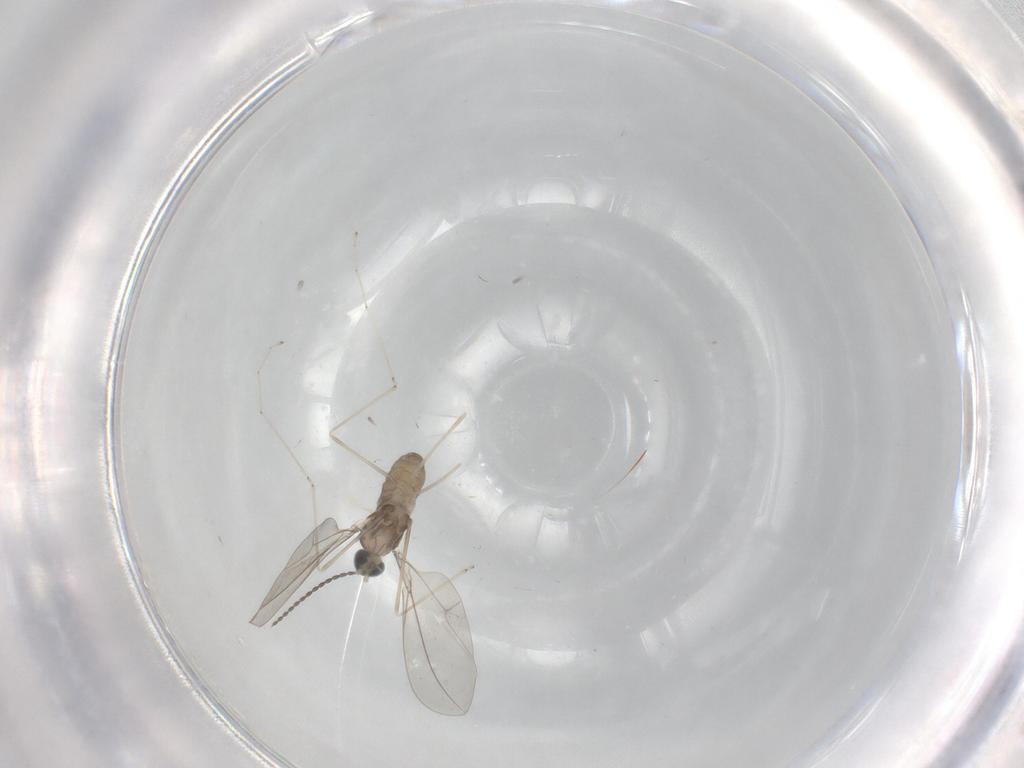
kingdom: Animalia
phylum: Arthropoda
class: Insecta
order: Diptera
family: Cecidomyiidae
